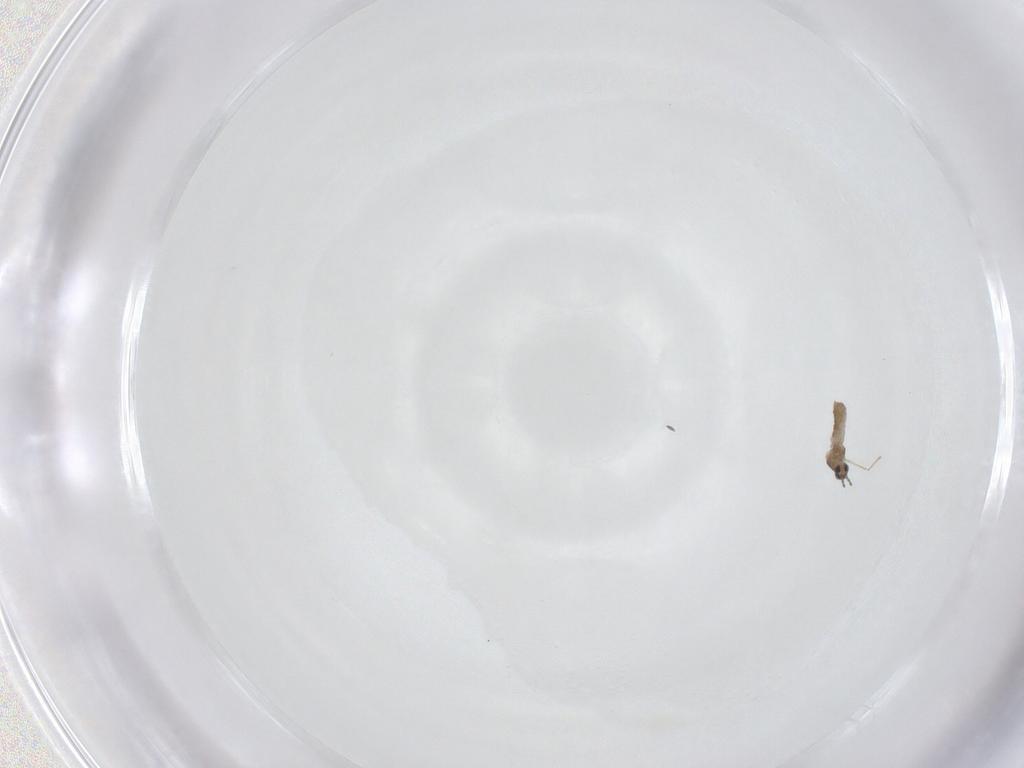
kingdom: Animalia
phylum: Arthropoda
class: Insecta
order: Diptera
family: Cecidomyiidae
